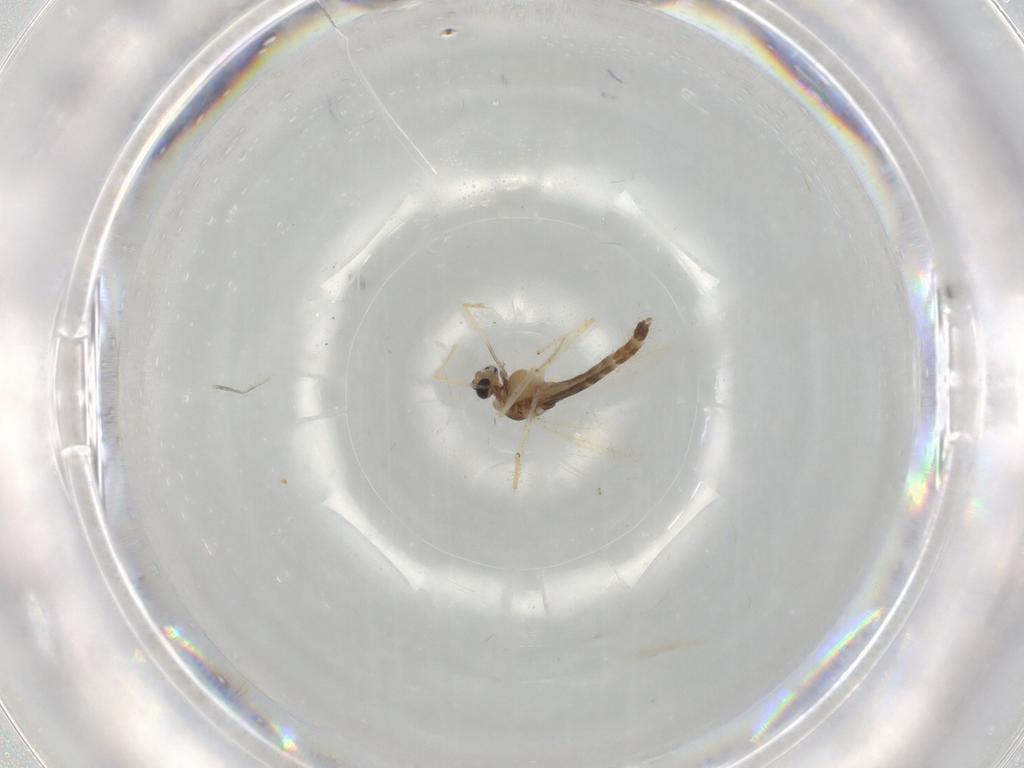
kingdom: Animalia
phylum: Arthropoda
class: Insecta
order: Diptera
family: Chironomidae
